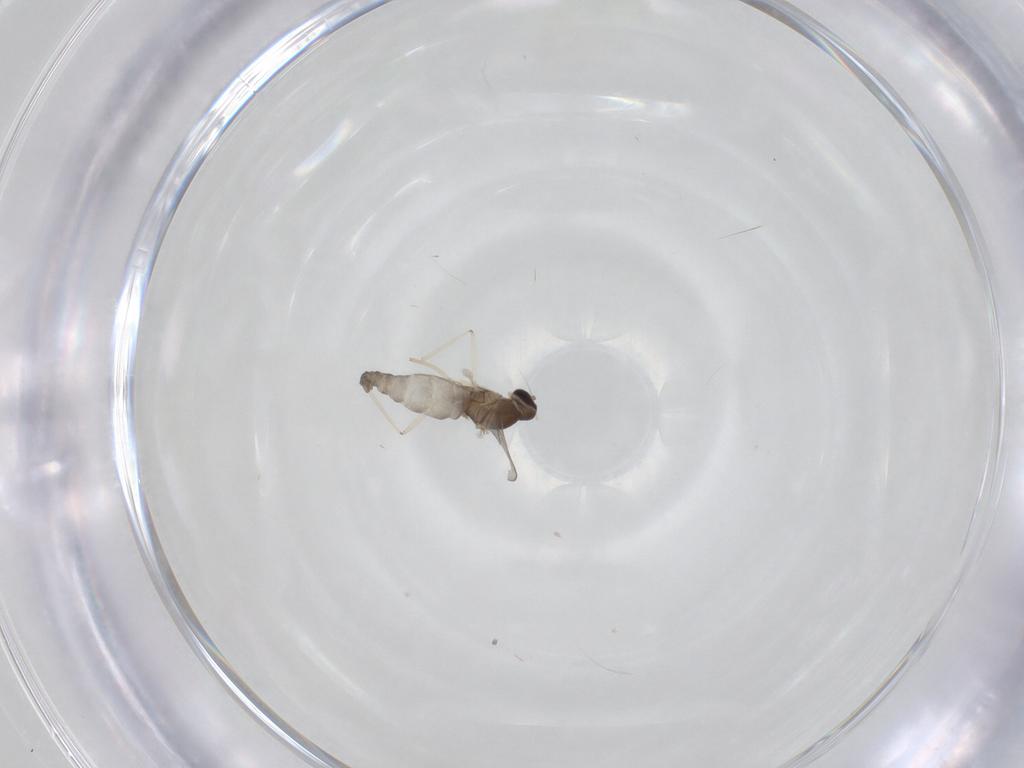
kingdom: Animalia
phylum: Arthropoda
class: Insecta
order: Diptera
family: Cecidomyiidae
